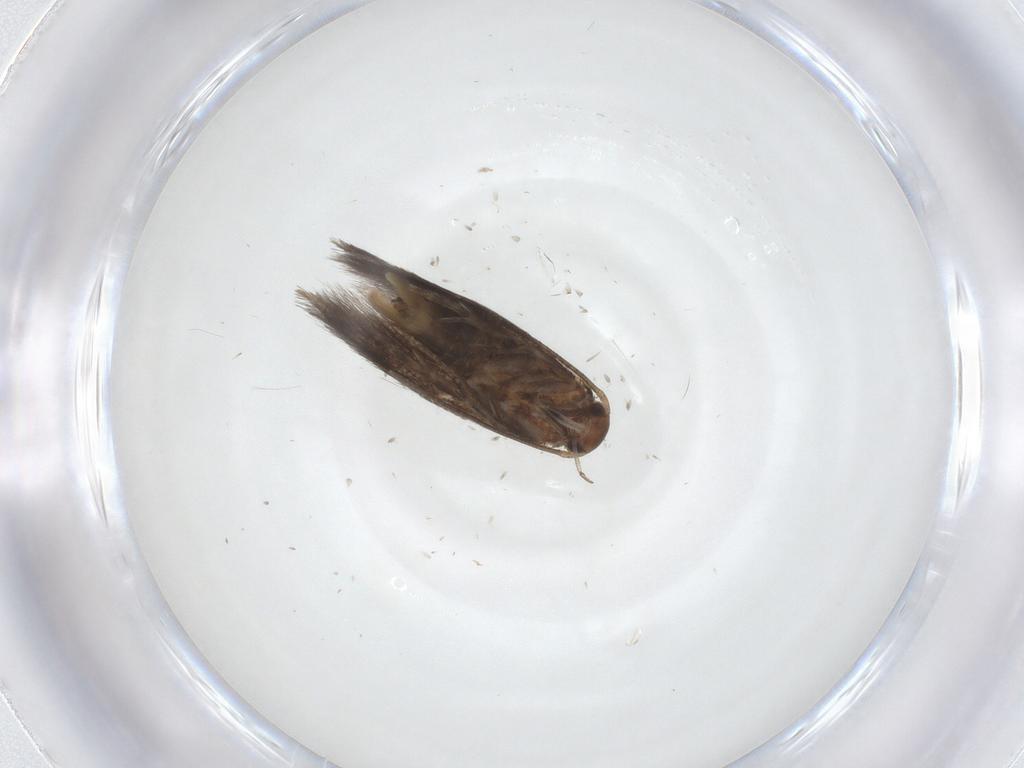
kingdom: Animalia
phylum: Arthropoda
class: Insecta
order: Lepidoptera
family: Elachistidae
